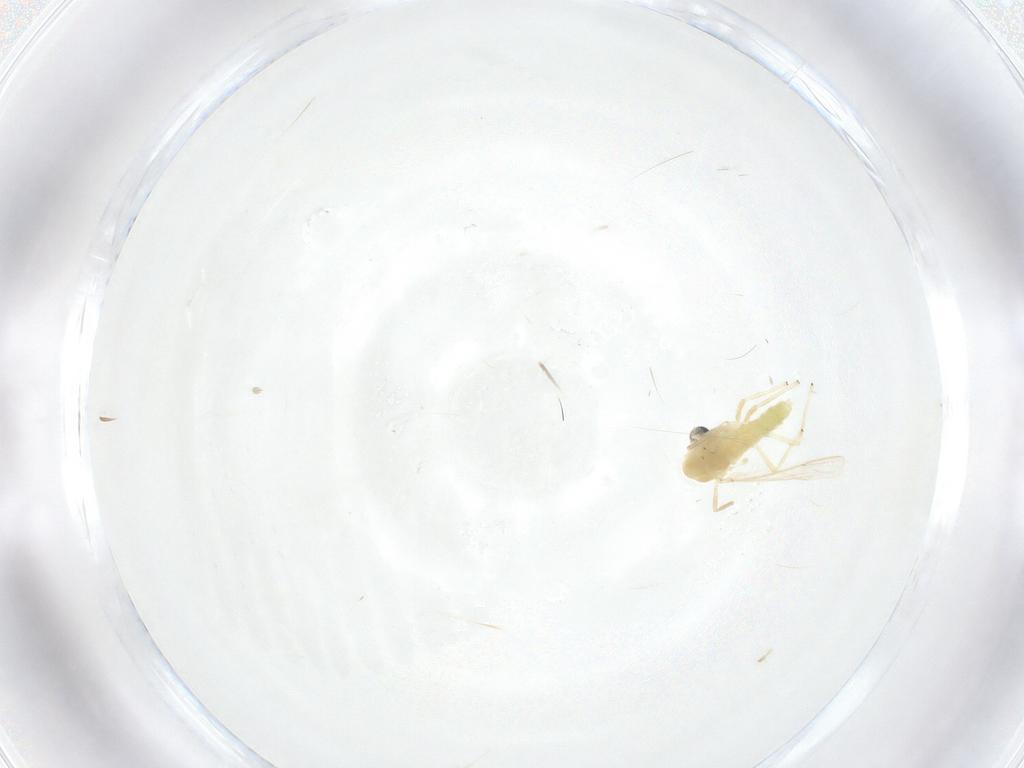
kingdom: Animalia
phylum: Arthropoda
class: Insecta
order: Diptera
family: Chironomidae
